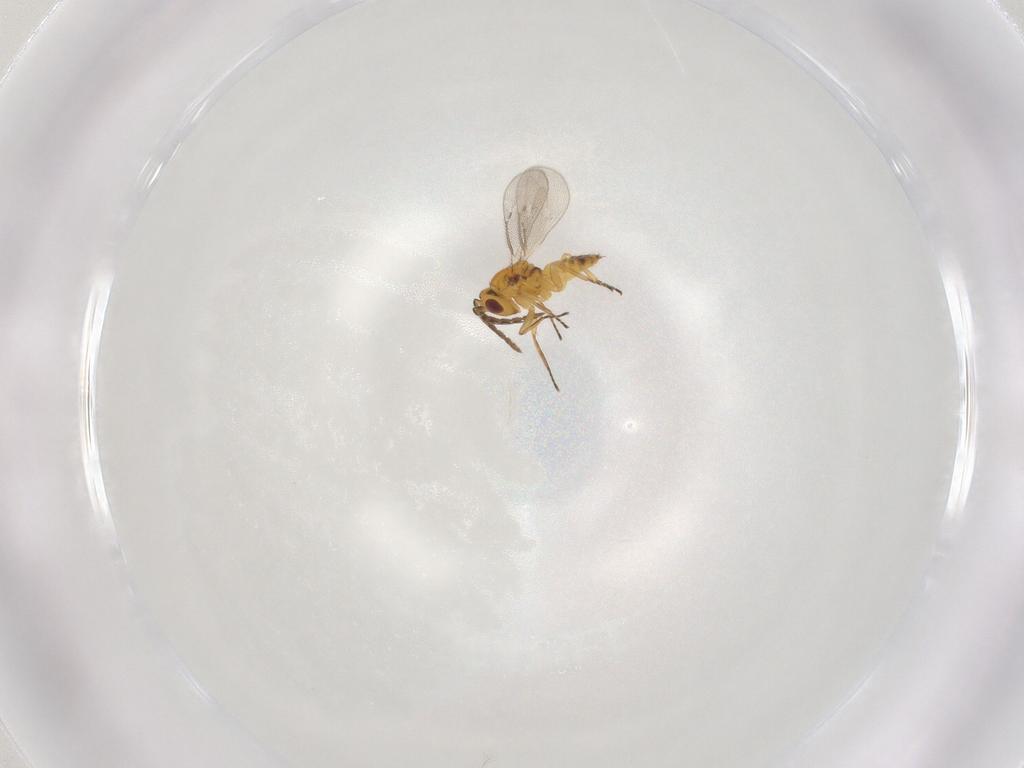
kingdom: Animalia
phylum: Arthropoda
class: Insecta
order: Hymenoptera
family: Eulophidae
